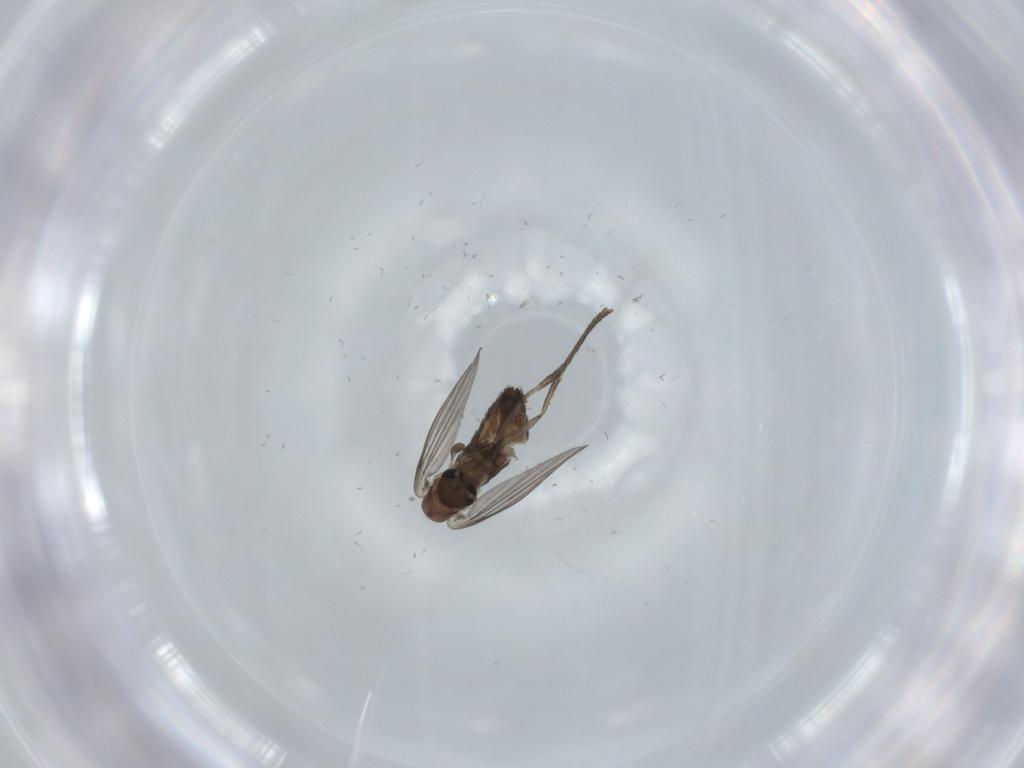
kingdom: Animalia
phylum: Arthropoda
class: Insecta
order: Diptera
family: Psychodidae
